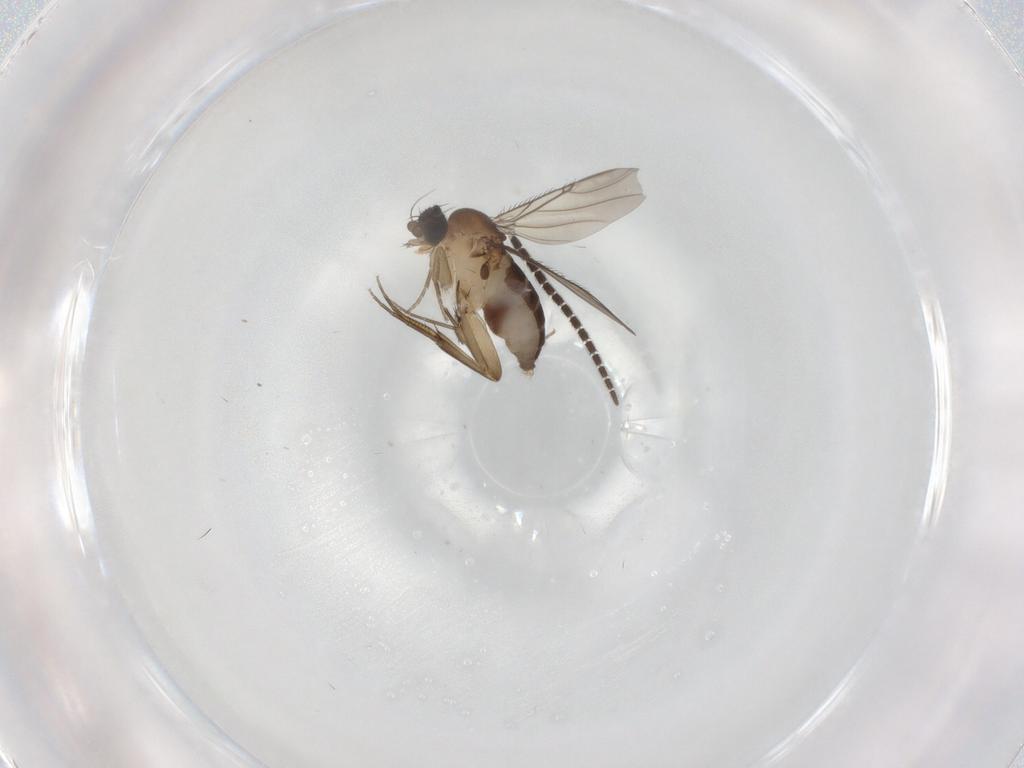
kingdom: Animalia
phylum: Arthropoda
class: Insecta
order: Diptera
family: Phoridae
